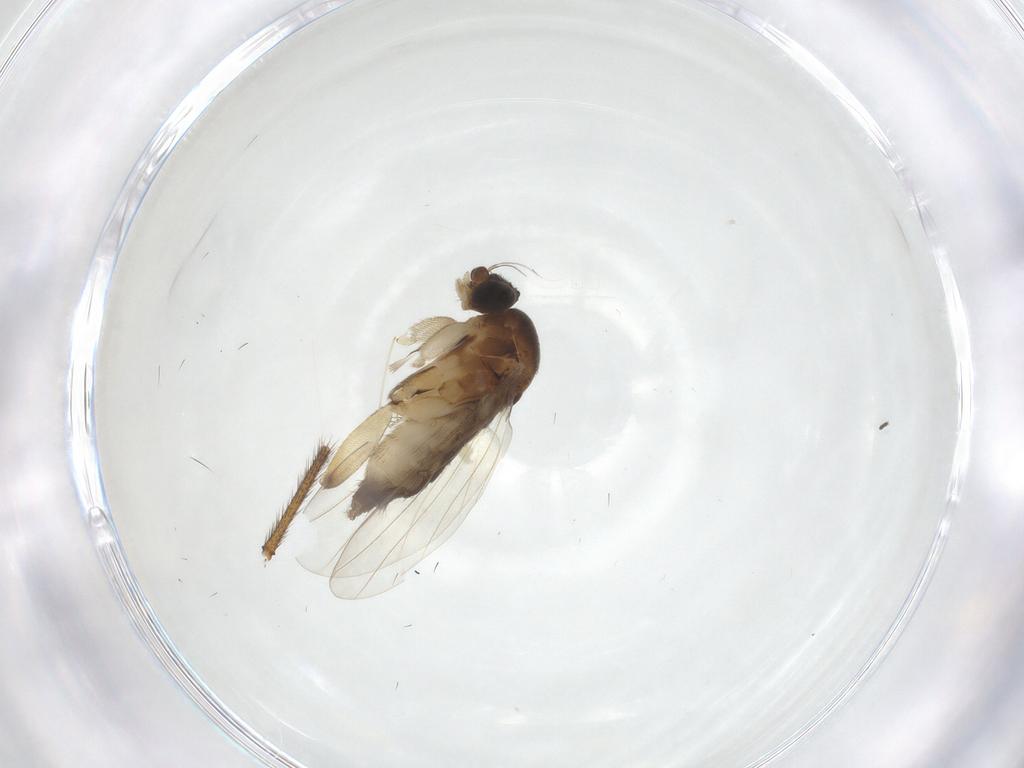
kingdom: Animalia
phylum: Arthropoda
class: Insecta
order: Diptera
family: Phoridae
